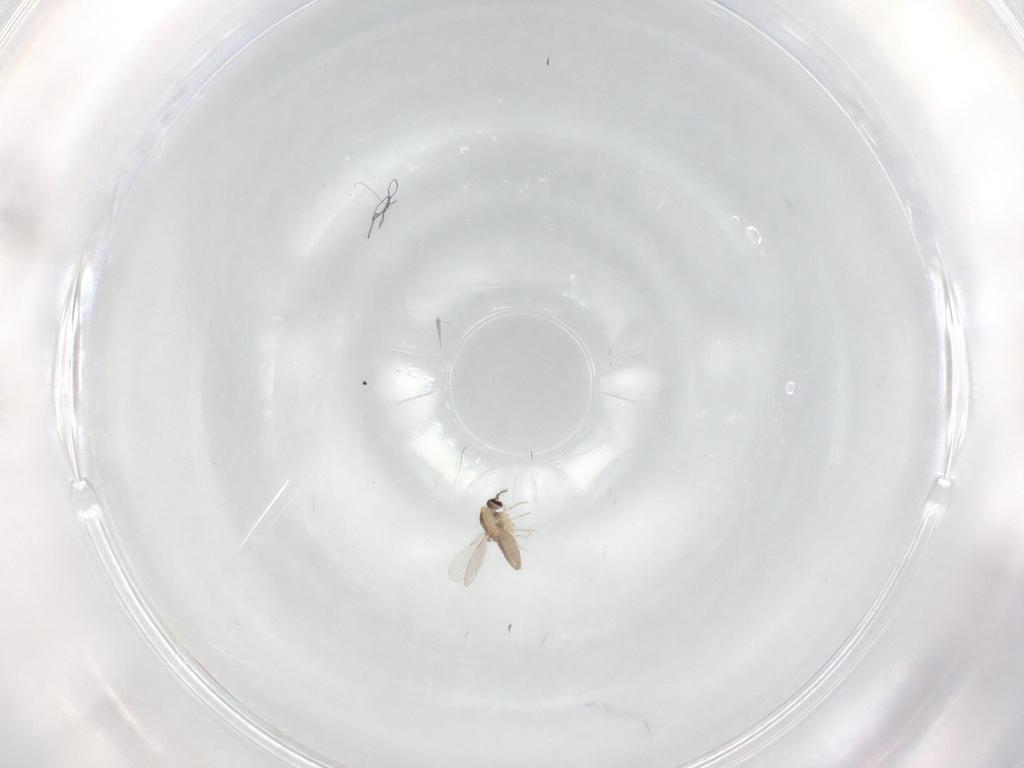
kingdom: Animalia
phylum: Arthropoda
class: Insecta
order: Diptera
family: Ceratopogonidae
